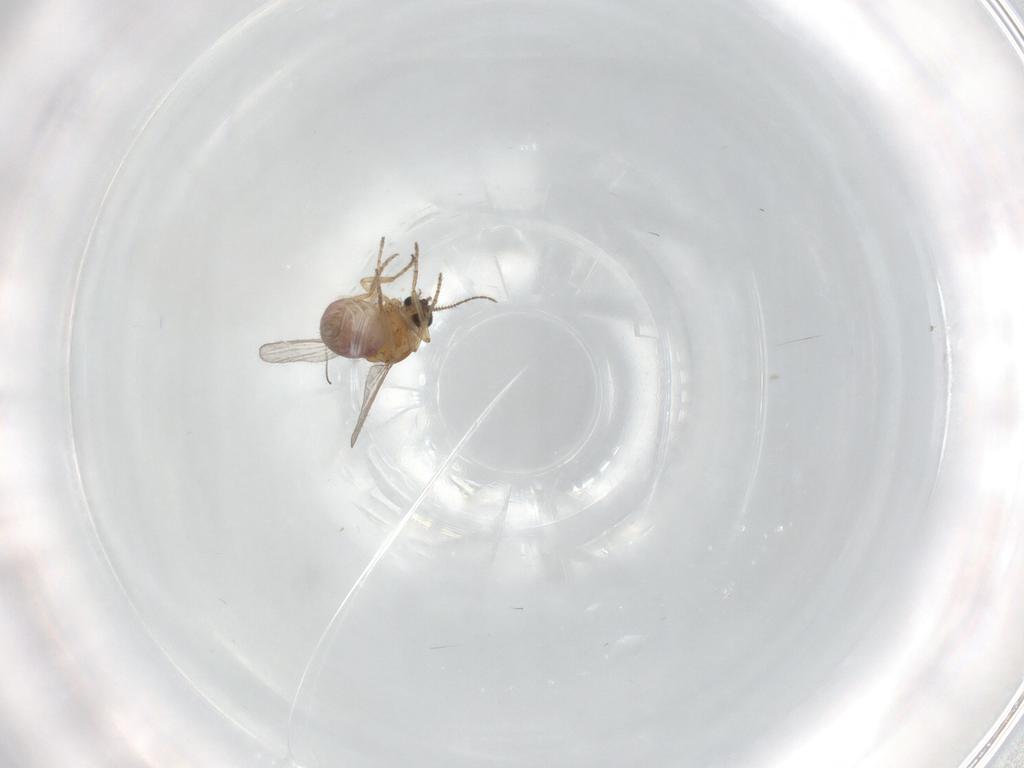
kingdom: Animalia
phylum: Arthropoda
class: Insecta
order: Diptera
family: Ceratopogonidae
